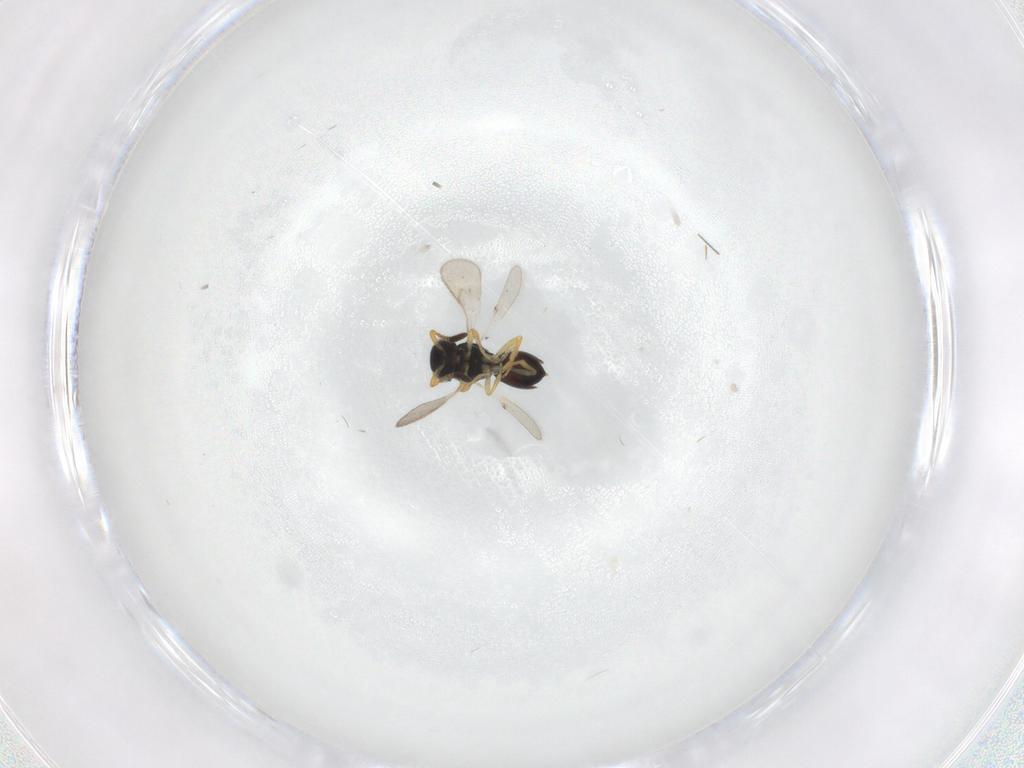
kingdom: Animalia
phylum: Arthropoda
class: Insecta
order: Hymenoptera
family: Scelionidae
